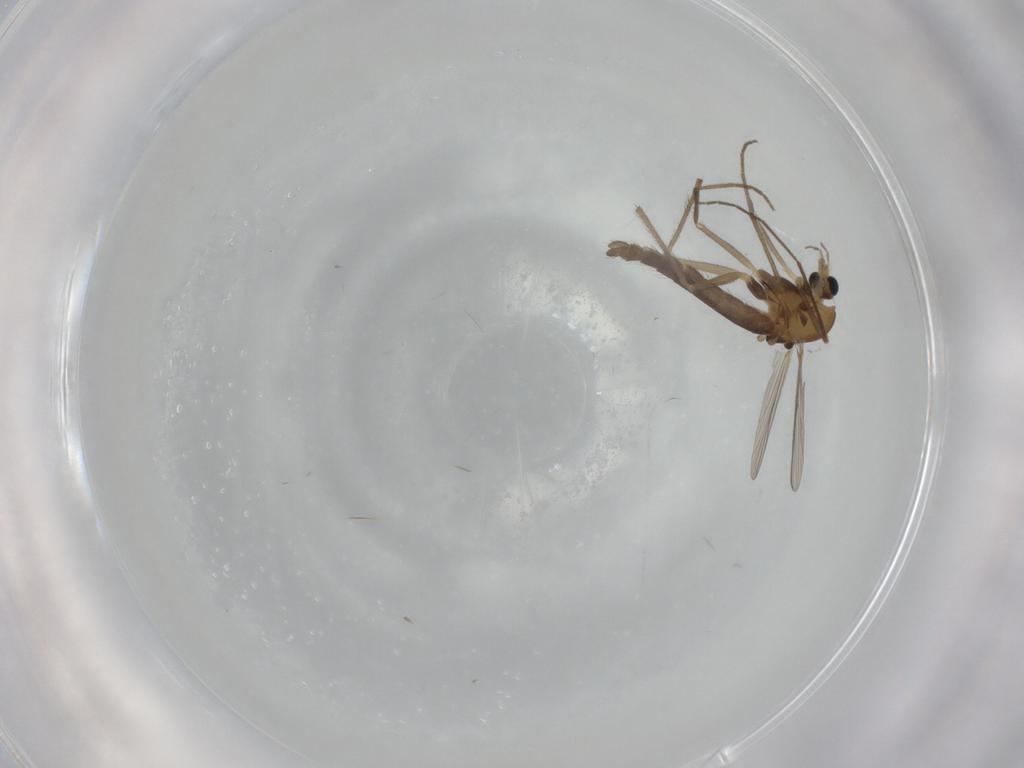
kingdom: Animalia
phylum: Arthropoda
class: Insecta
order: Diptera
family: Chironomidae
